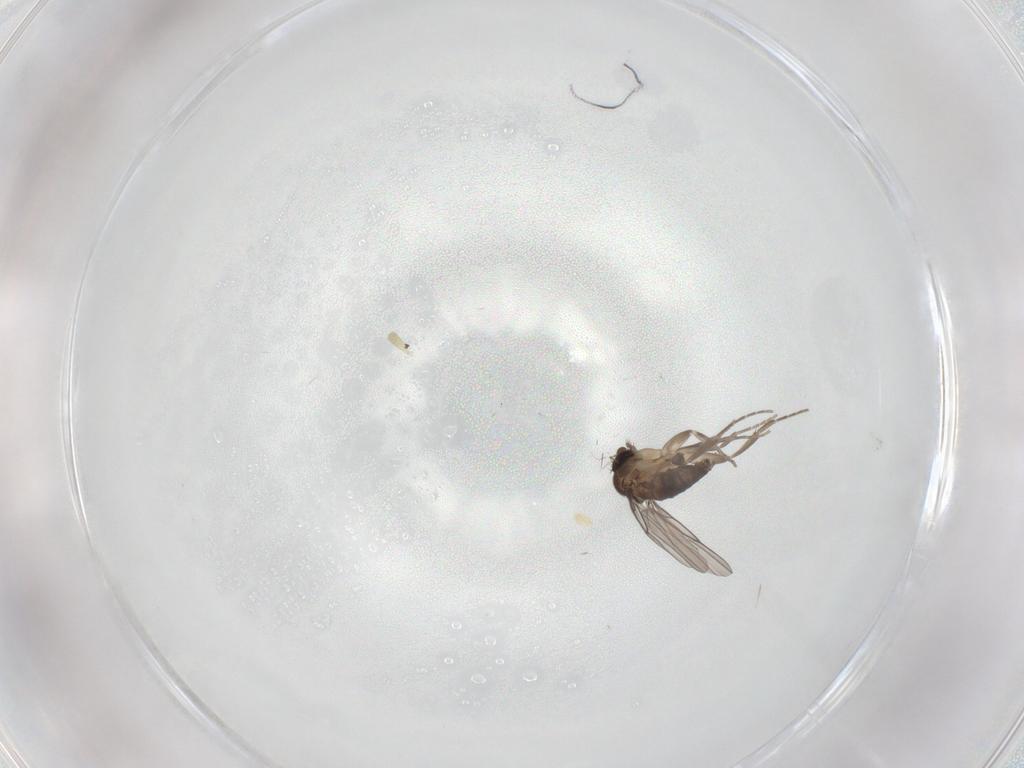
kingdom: Animalia
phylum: Arthropoda
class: Insecta
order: Diptera
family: Phoridae
